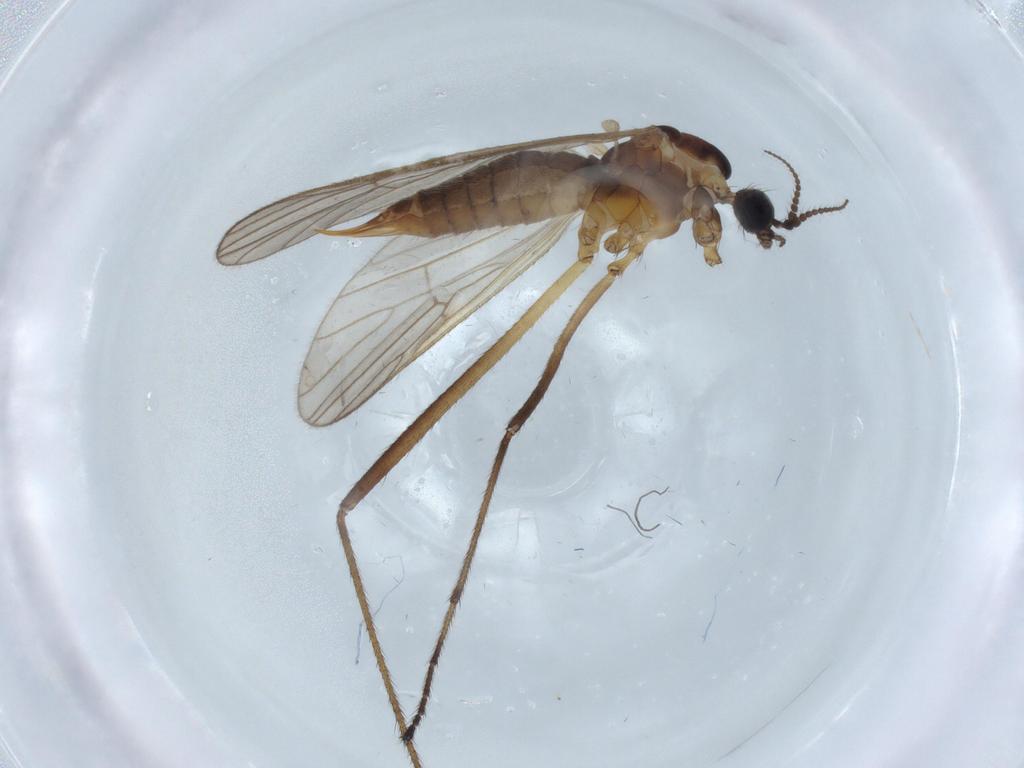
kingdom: Animalia
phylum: Arthropoda
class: Insecta
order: Diptera
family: Agromyzidae
